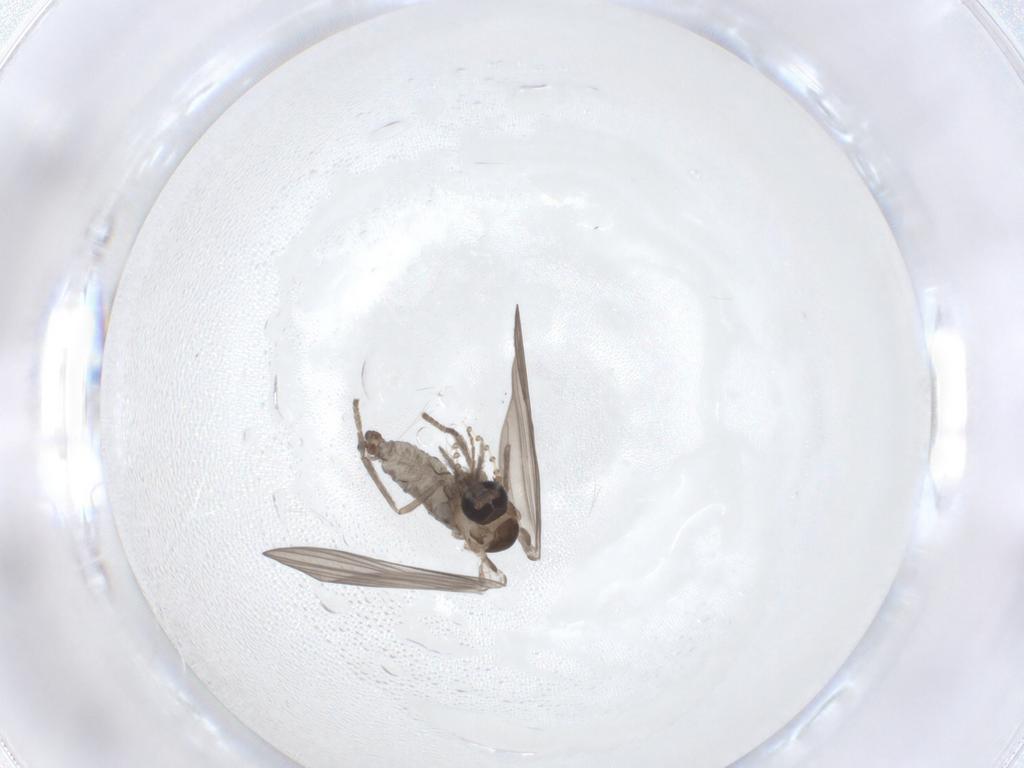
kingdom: Animalia
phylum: Arthropoda
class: Insecta
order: Diptera
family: Psychodidae
